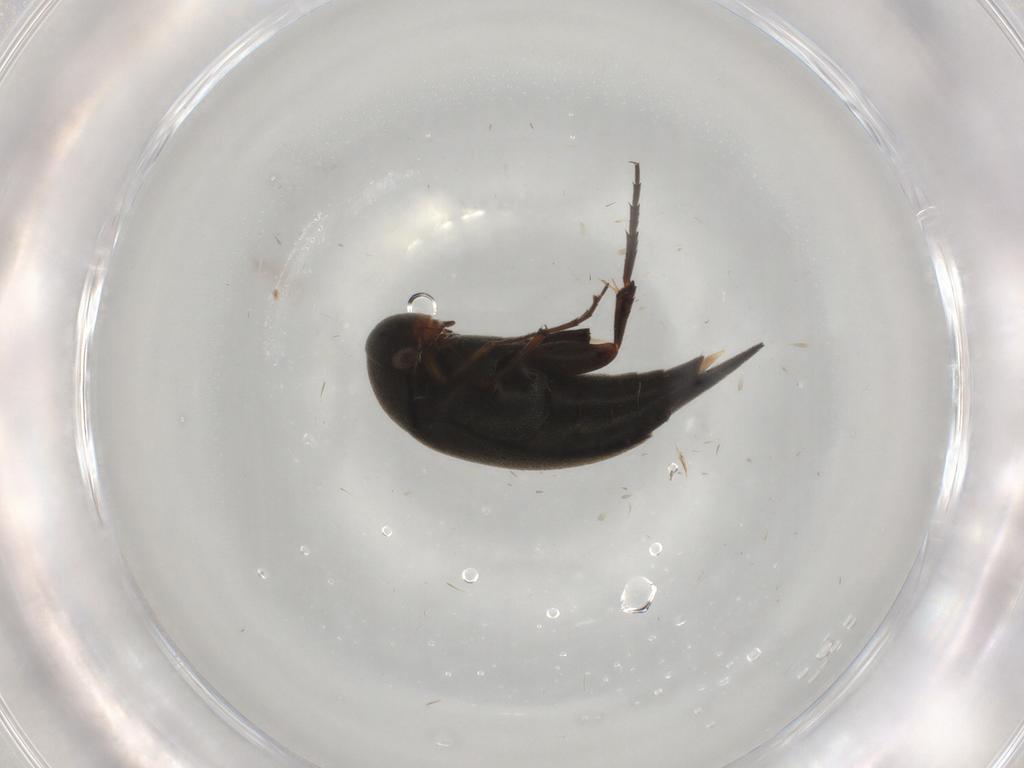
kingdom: Animalia
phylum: Arthropoda
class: Insecta
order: Coleoptera
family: Mordellidae
